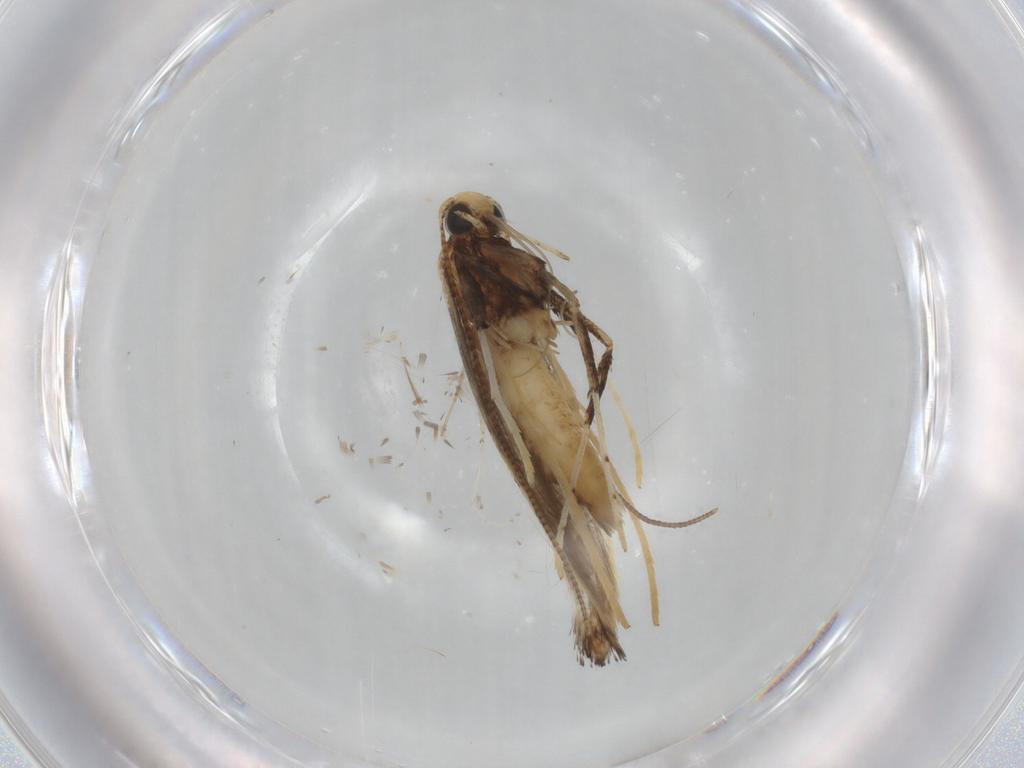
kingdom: Animalia
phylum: Arthropoda
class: Insecta
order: Lepidoptera
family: Gracillariidae
